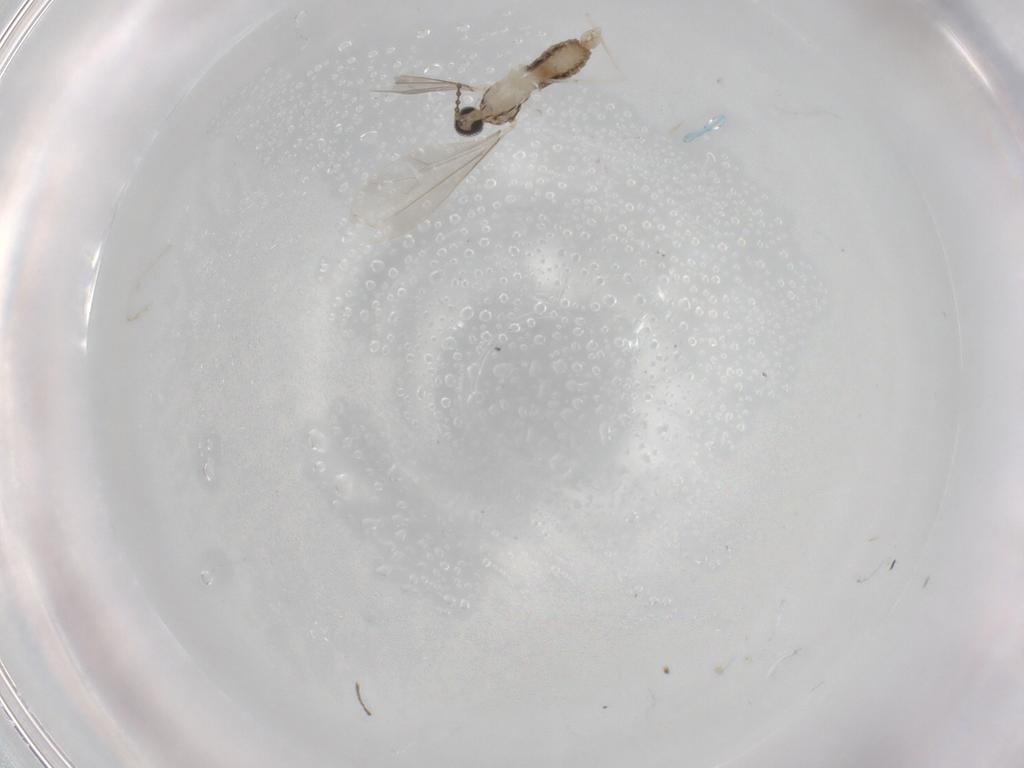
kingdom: Animalia
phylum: Arthropoda
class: Insecta
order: Diptera
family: Cecidomyiidae
